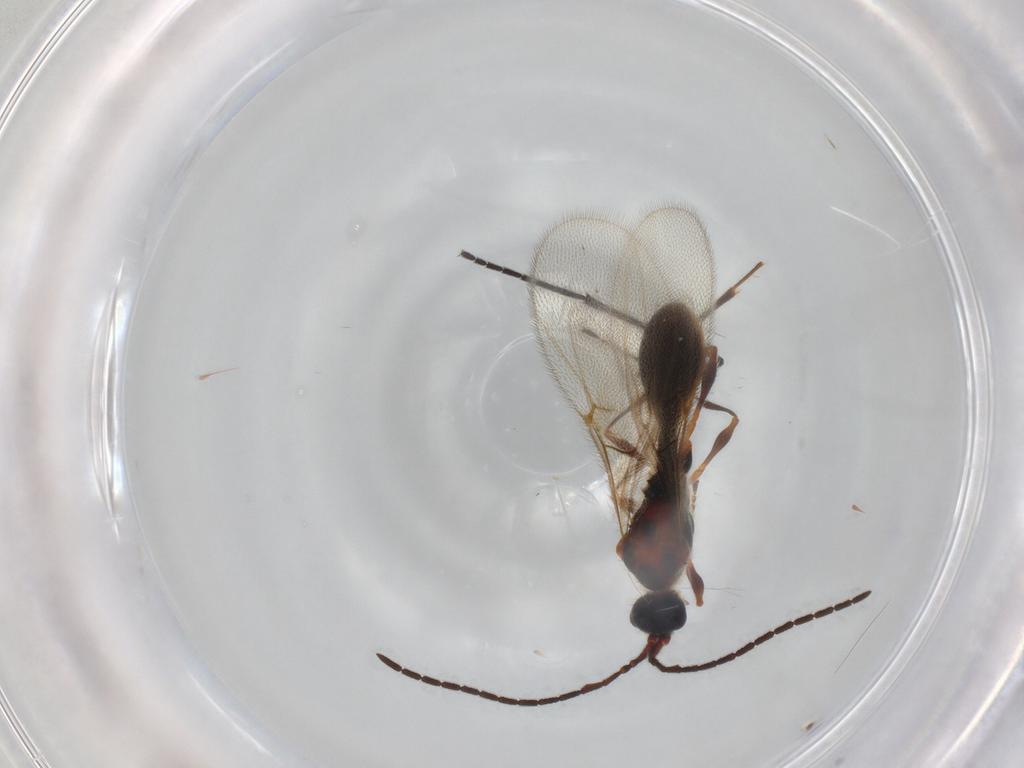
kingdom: Animalia
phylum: Arthropoda
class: Insecta
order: Hymenoptera
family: Diapriidae
